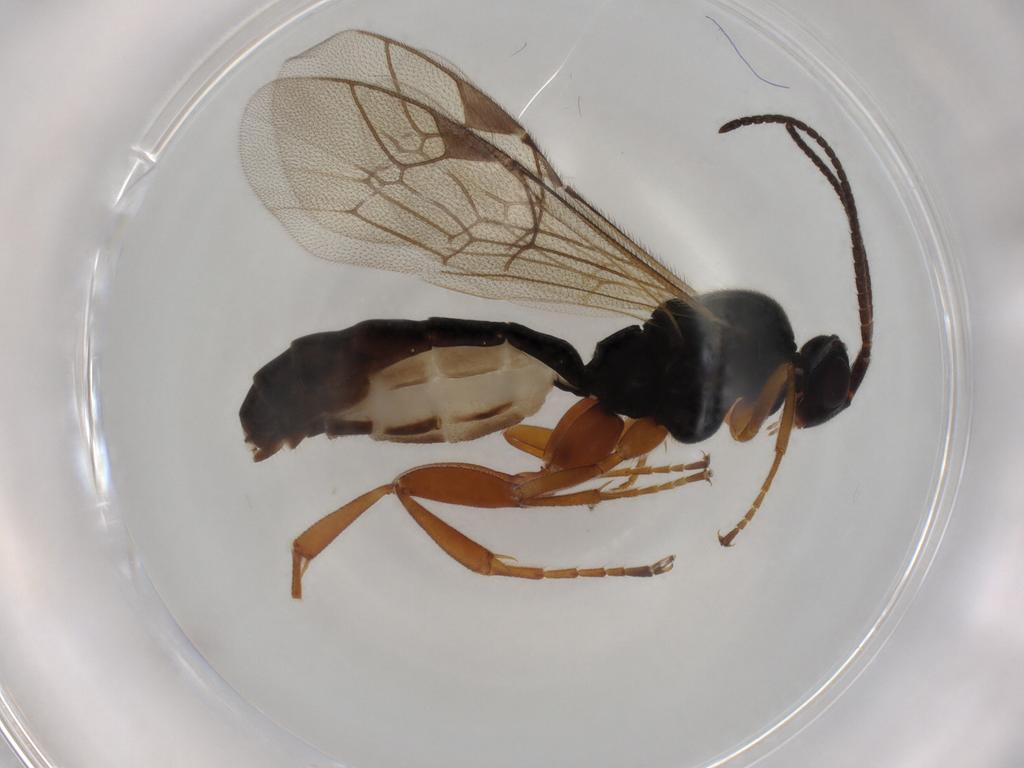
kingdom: Animalia
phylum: Arthropoda
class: Insecta
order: Hymenoptera
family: Ichneumonidae
